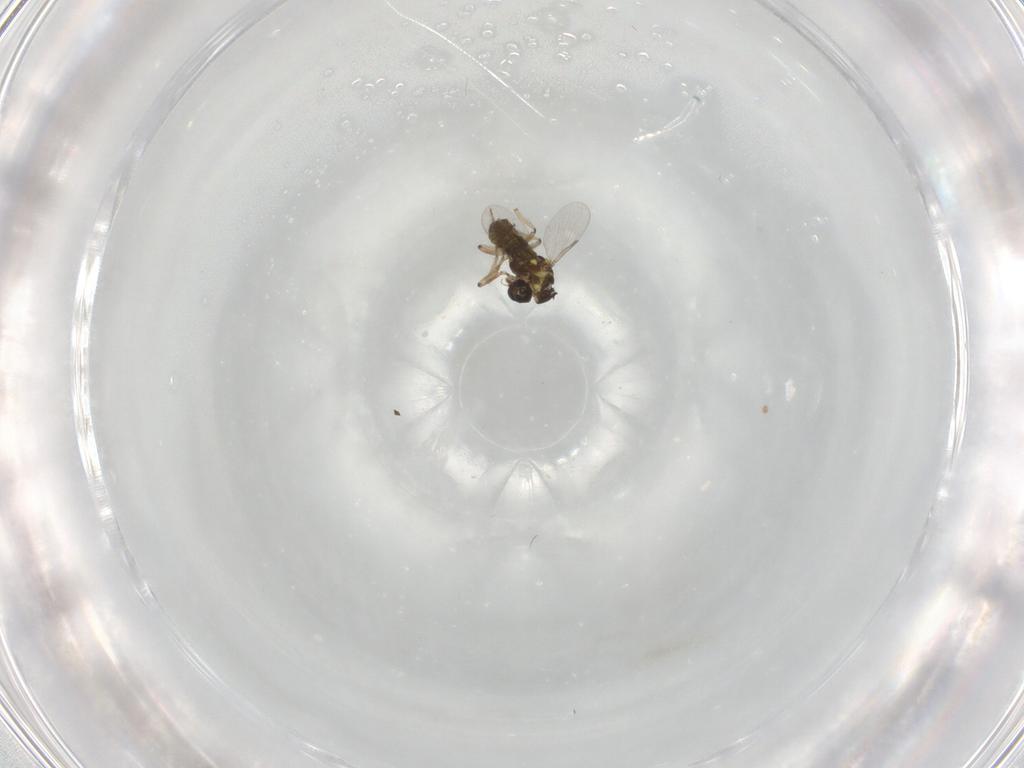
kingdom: Animalia
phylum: Arthropoda
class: Insecta
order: Diptera
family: Ceratopogonidae
